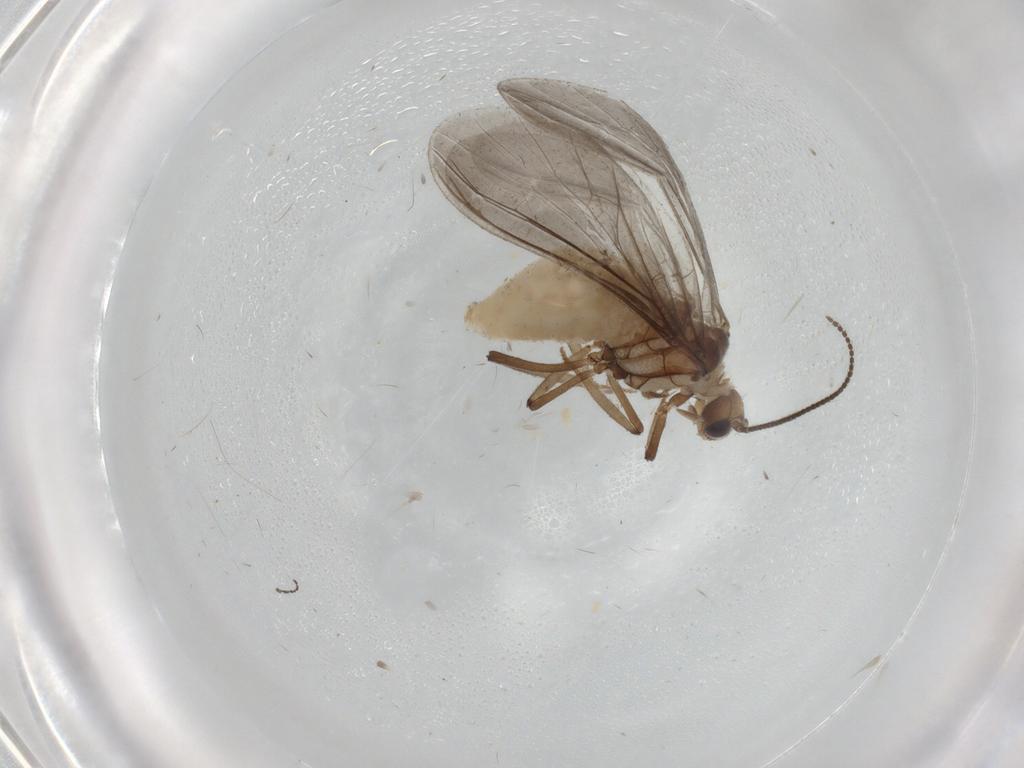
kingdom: Animalia
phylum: Arthropoda
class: Insecta
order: Neuroptera
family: Coniopterygidae
